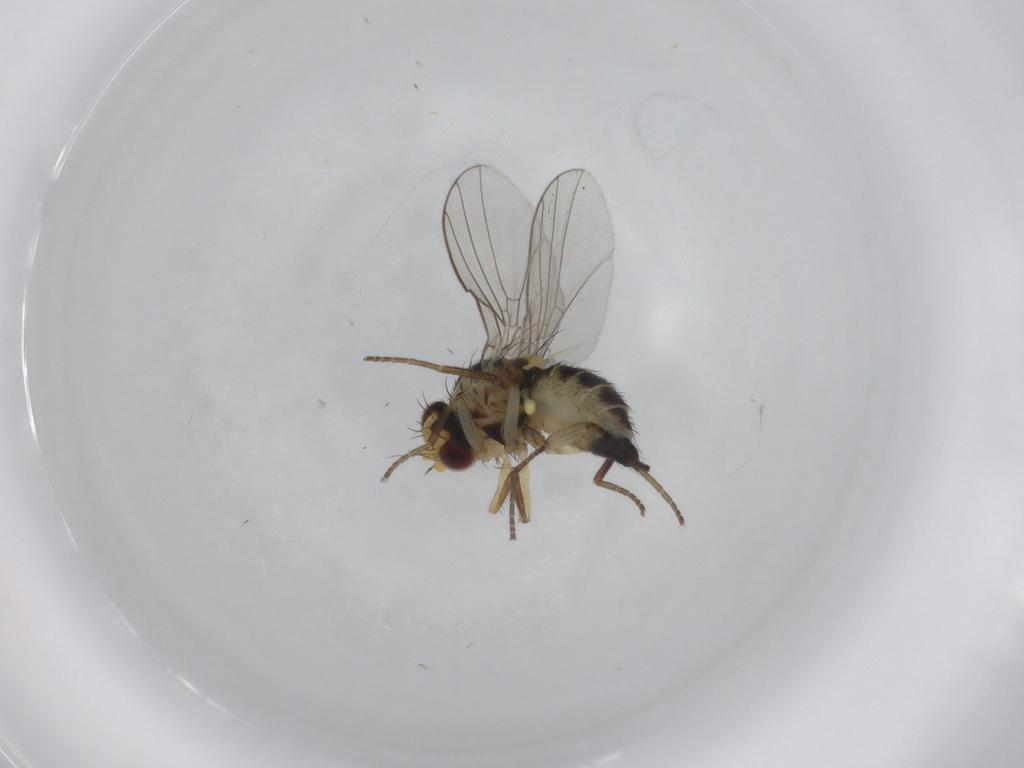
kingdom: Animalia
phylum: Arthropoda
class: Insecta
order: Diptera
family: Agromyzidae
